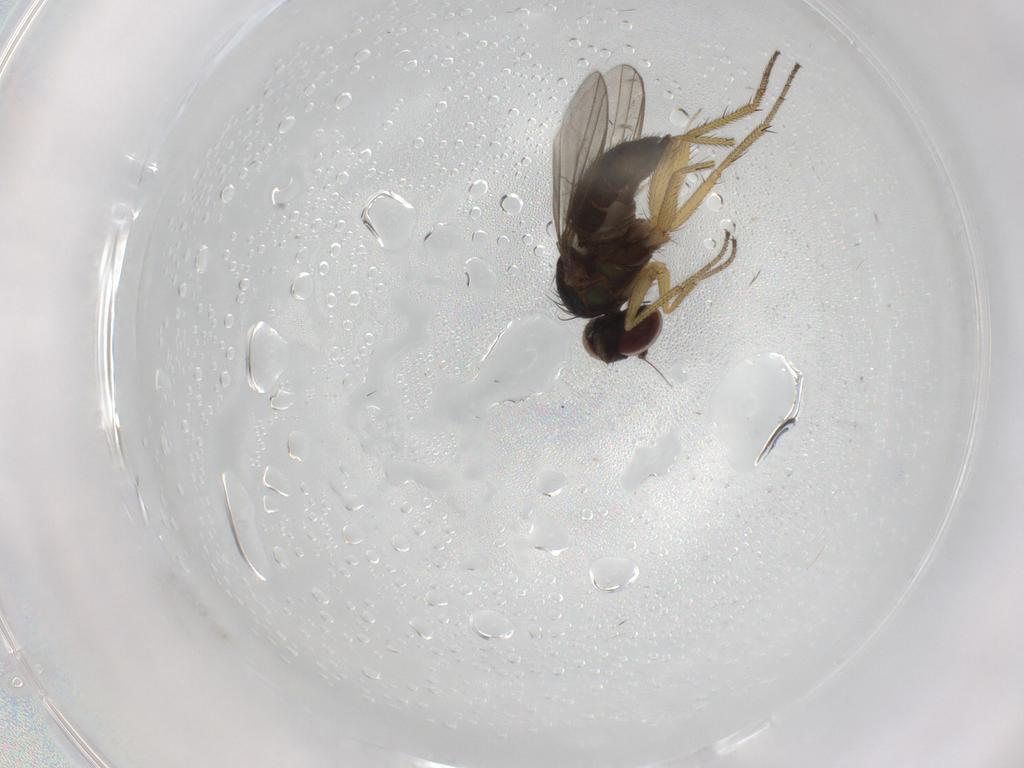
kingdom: Animalia
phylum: Arthropoda
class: Insecta
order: Diptera
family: Dolichopodidae
